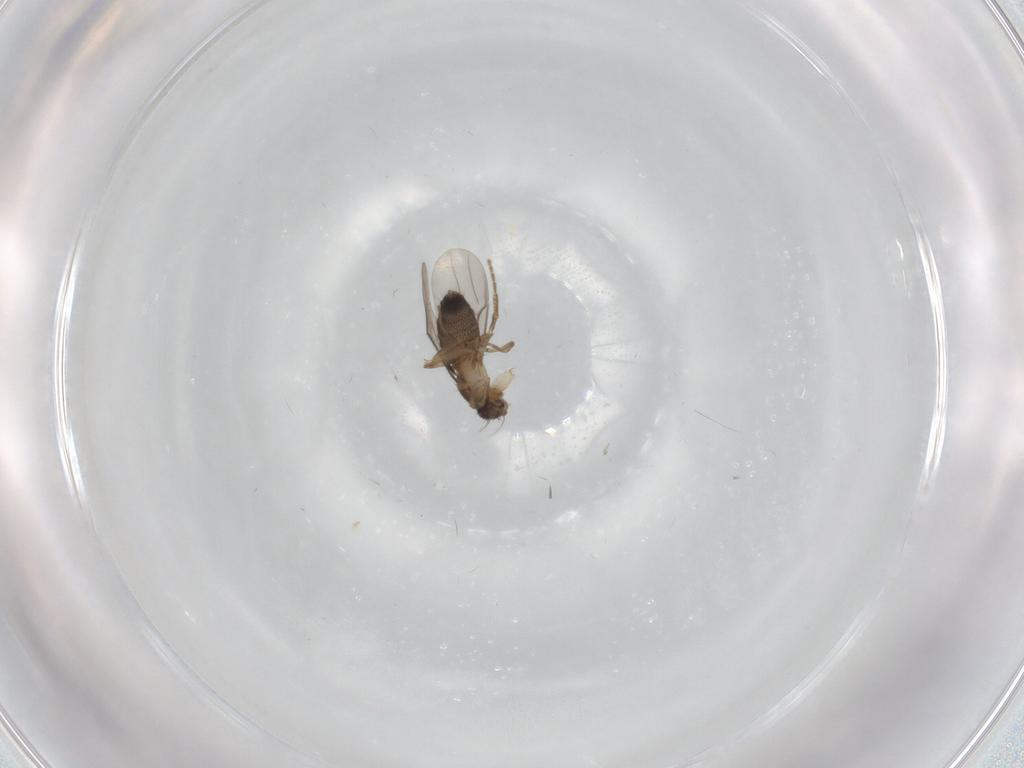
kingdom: Animalia
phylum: Arthropoda
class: Insecta
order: Diptera
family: Phoridae
